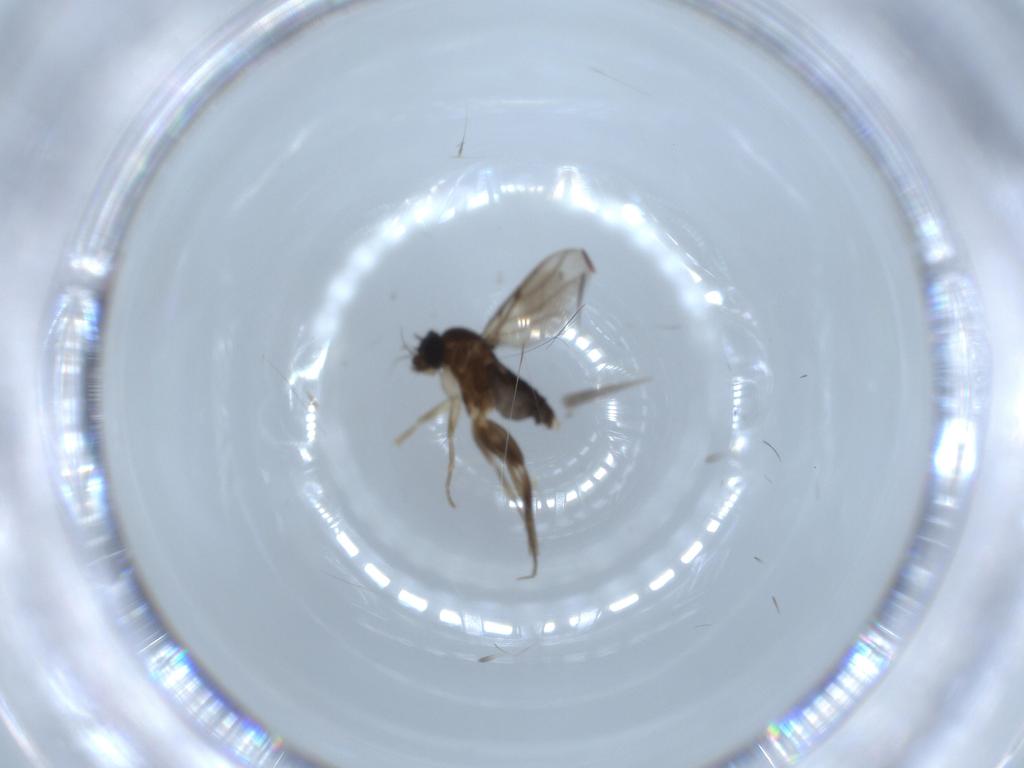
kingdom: Animalia
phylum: Arthropoda
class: Insecta
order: Diptera
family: Phoridae
